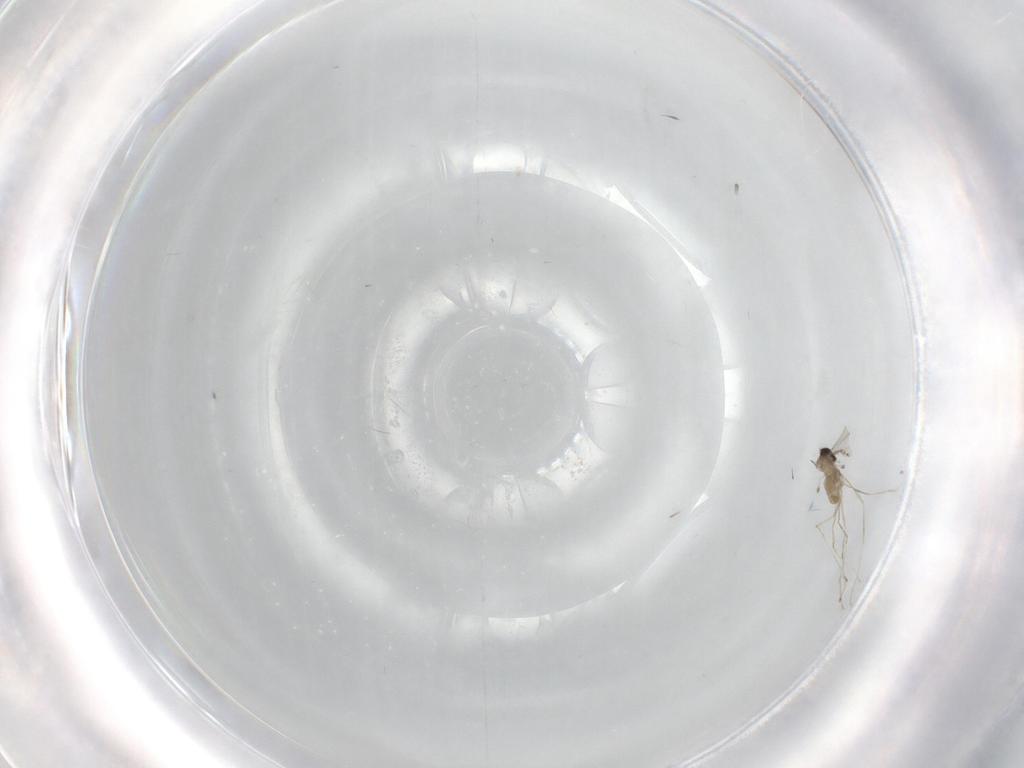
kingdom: Animalia
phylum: Arthropoda
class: Insecta
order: Diptera
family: Cecidomyiidae
